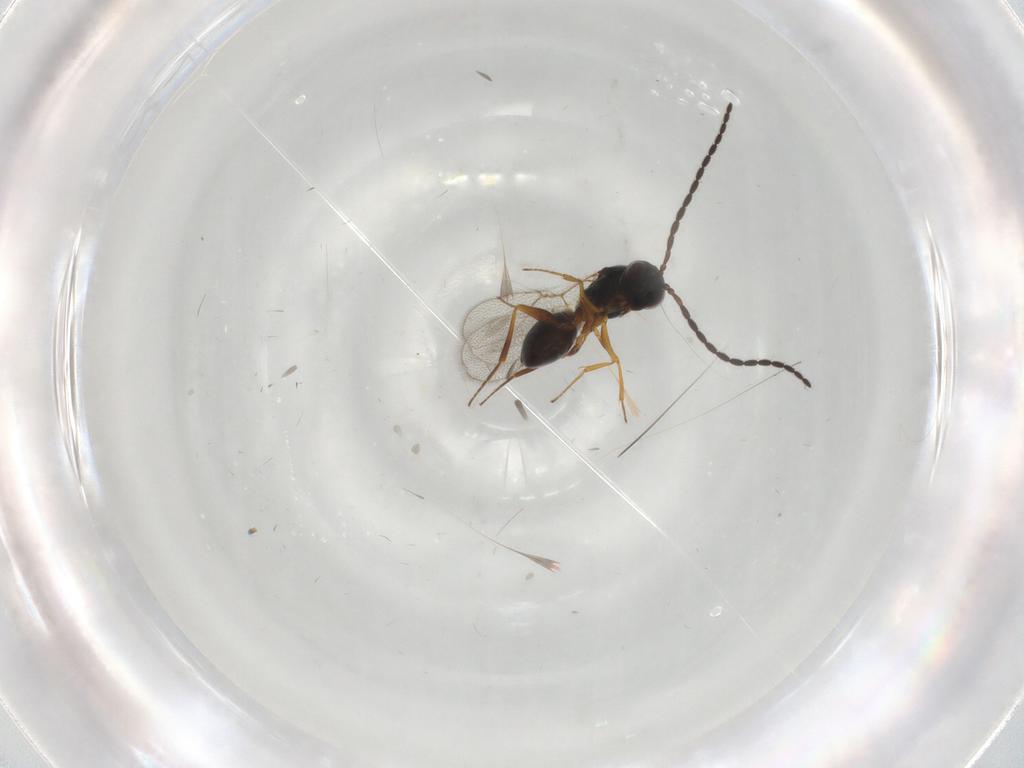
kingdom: Animalia
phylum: Arthropoda
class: Insecta
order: Hymenoptera
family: Figitidae
